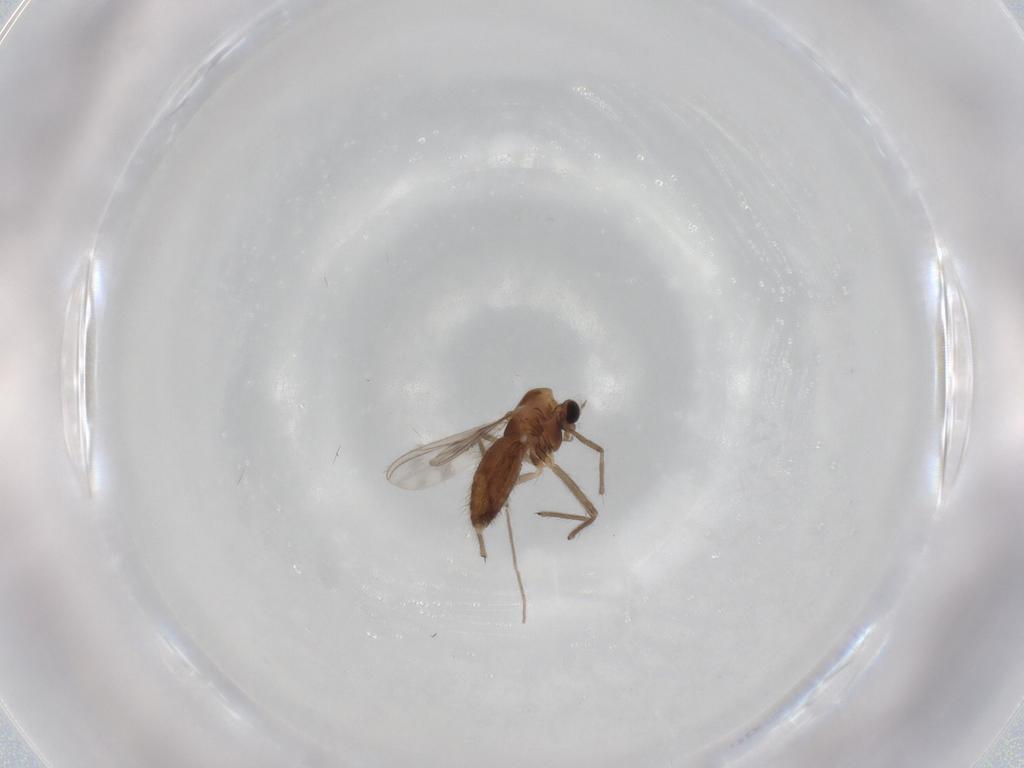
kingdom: Animalia
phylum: Arthropoda
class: Insecta
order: Diptera
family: Chironomidae
